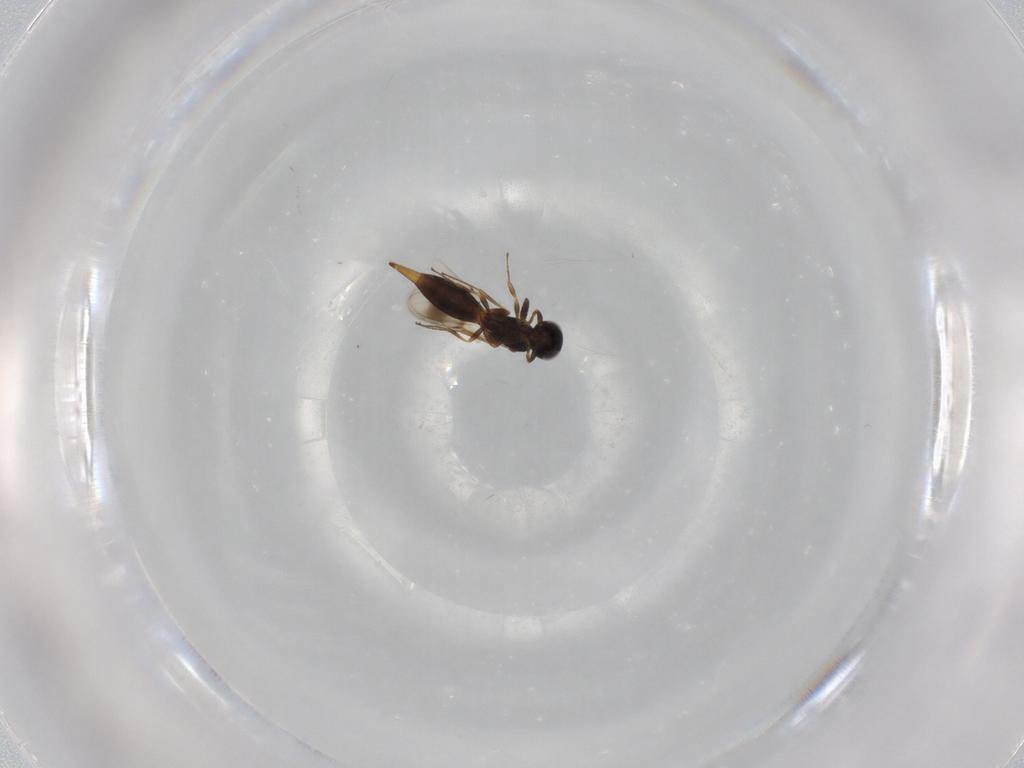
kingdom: Animalia
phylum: Arthropoda
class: Insecta
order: Hymenoptera
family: Scelionidae
